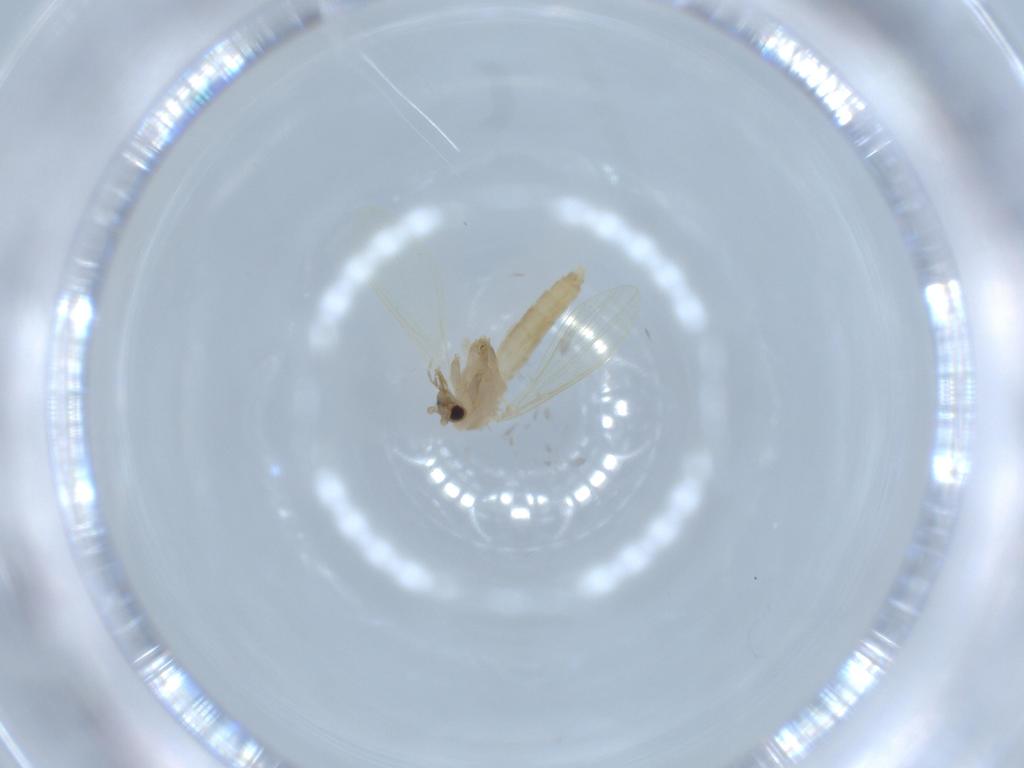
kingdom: Animalia
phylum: Arthropoda
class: Insecta
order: Diptera
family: Psychodidae
